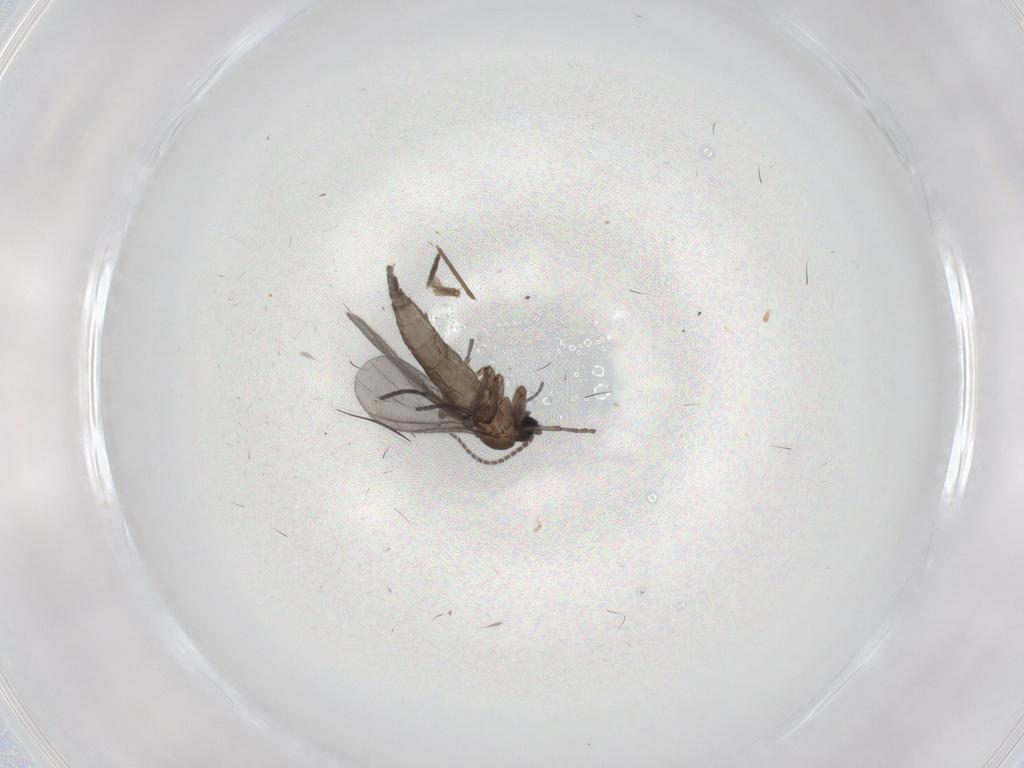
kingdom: Animalia
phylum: Arthropoda
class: Insecta
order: Diptera
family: Sciaridae
